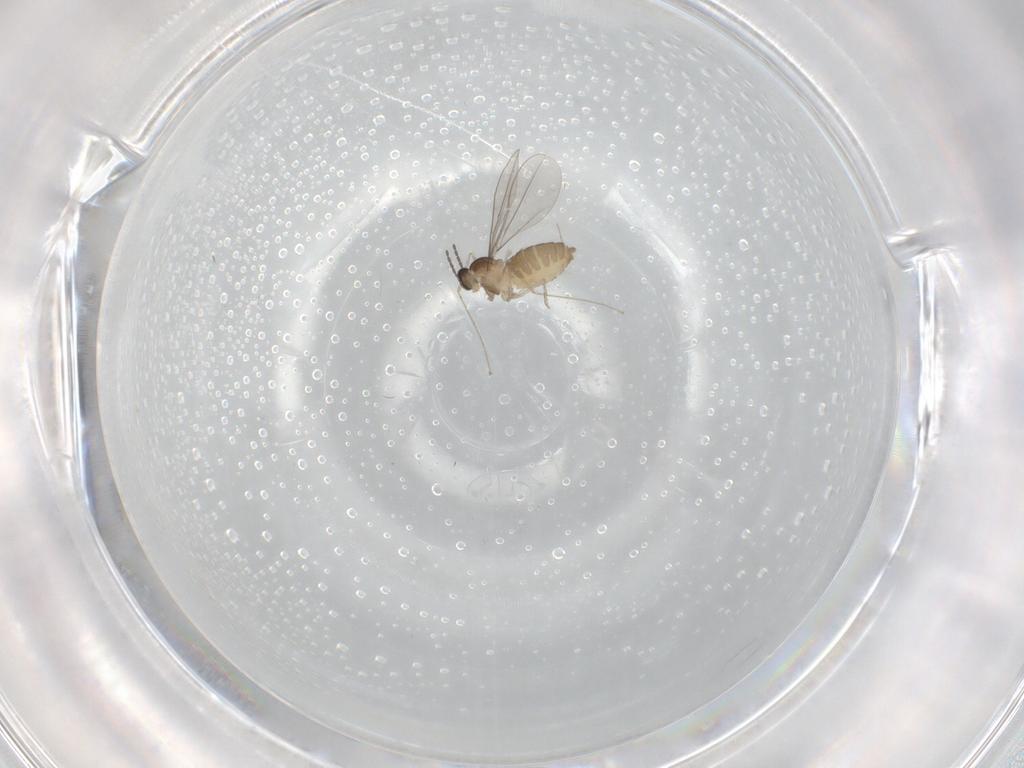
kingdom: Animalia
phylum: Arthropoda
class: Insecta
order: Diptera
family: Cecidomyiidae
